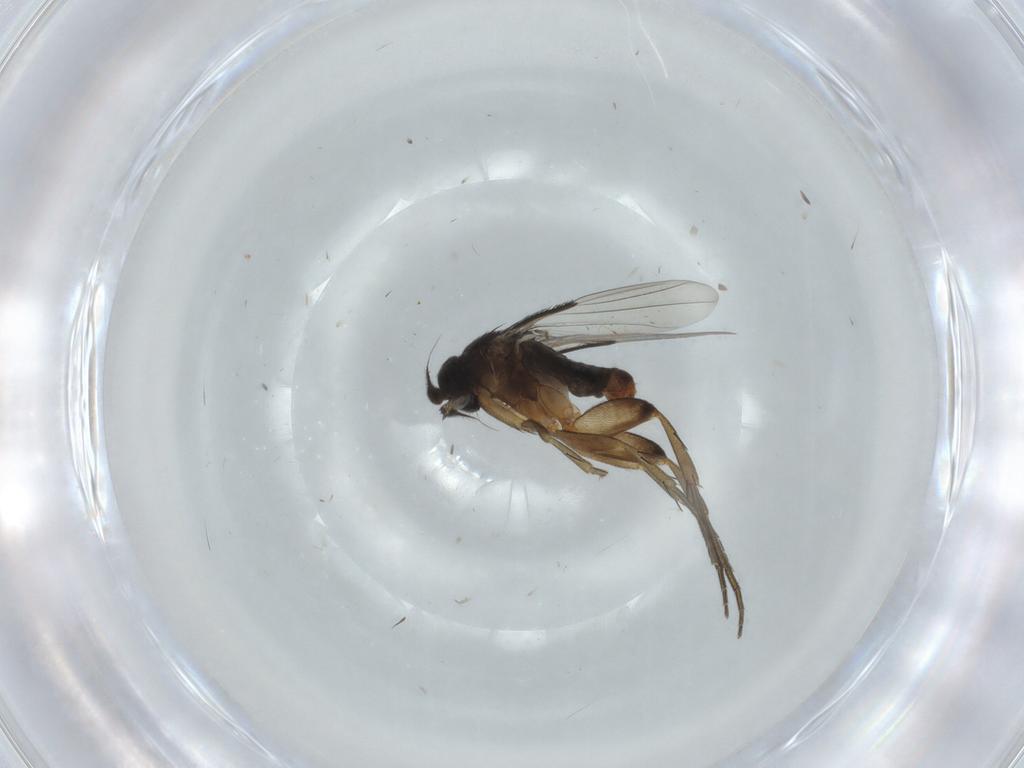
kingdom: Animalia
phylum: Arthropoda
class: Insecta
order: Diptera
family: Phoridae
